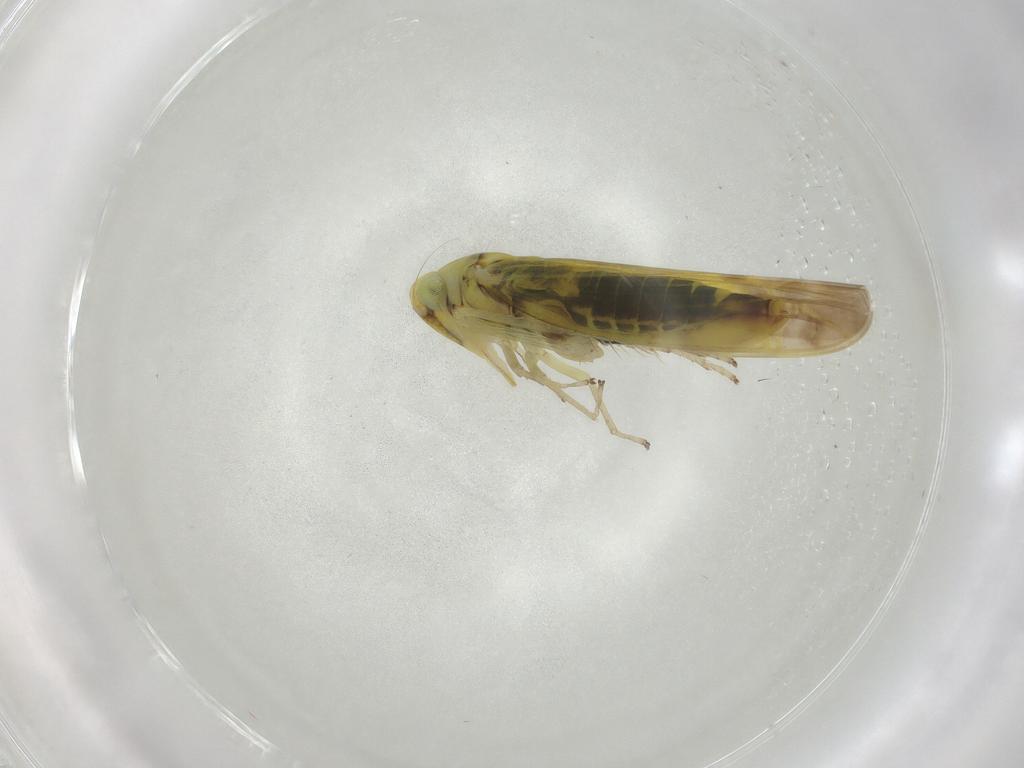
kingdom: Animalia
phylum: Arthropoda
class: Insecta
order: Hemiptera
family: Cicadellidae
